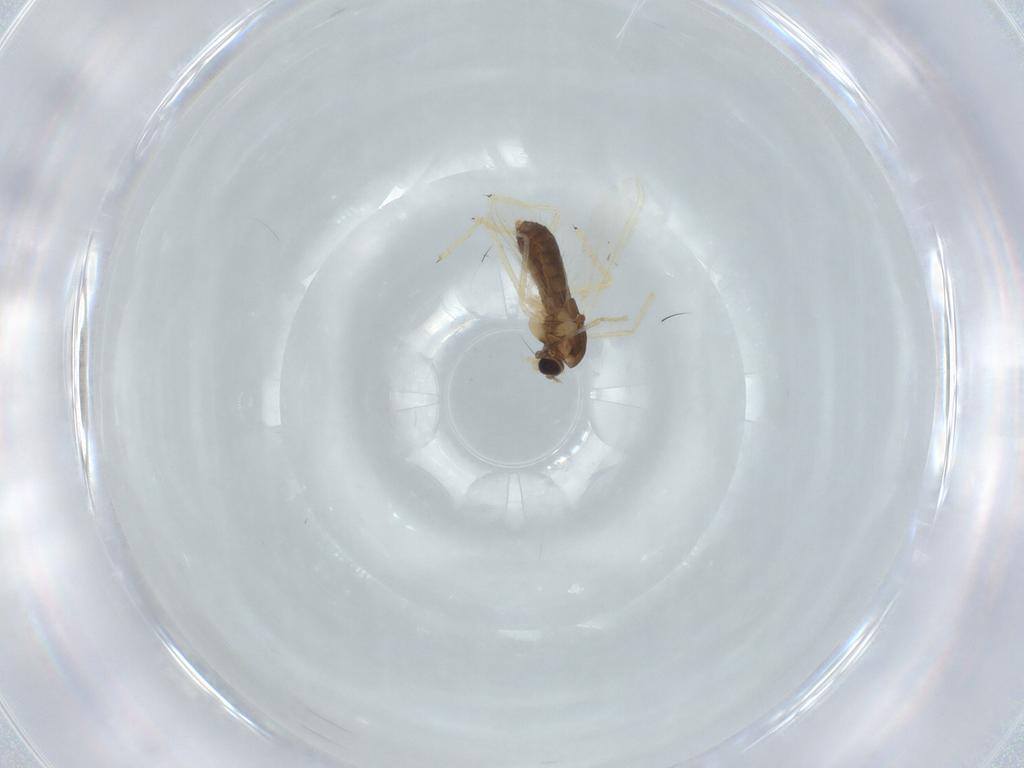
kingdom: Animalia
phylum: Arthropoda
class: Insecta
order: Diptera
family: Chironomidae
